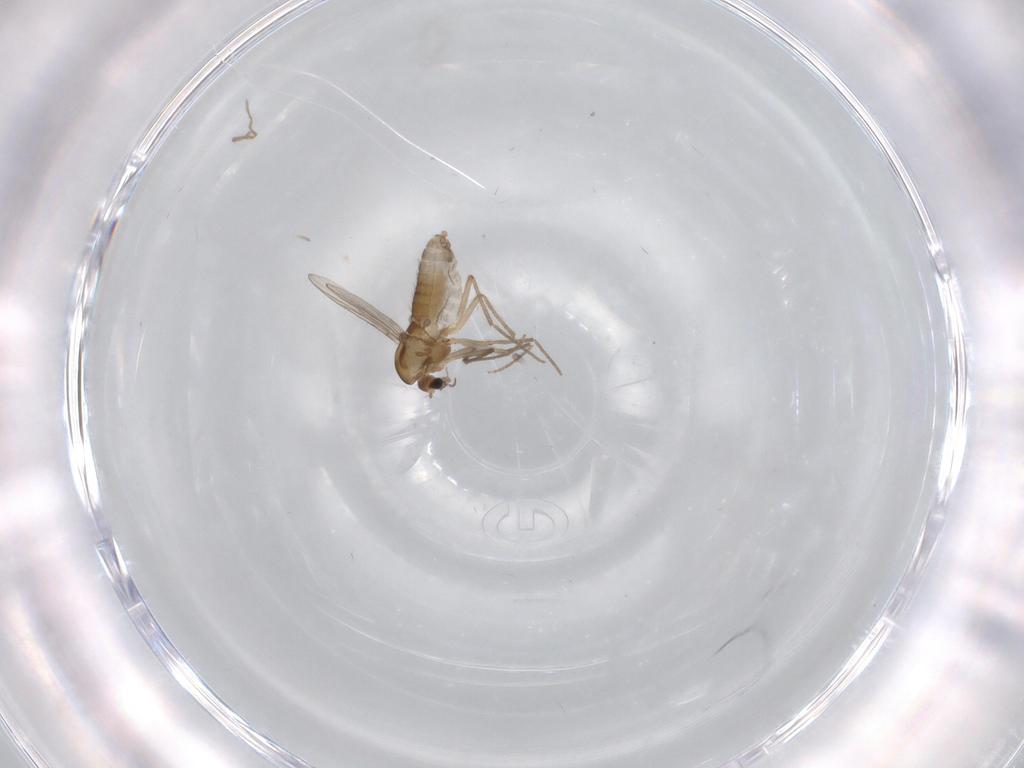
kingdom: Animalia
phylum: Arthropoda
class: Insecta
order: Diptera
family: Chironomidae
